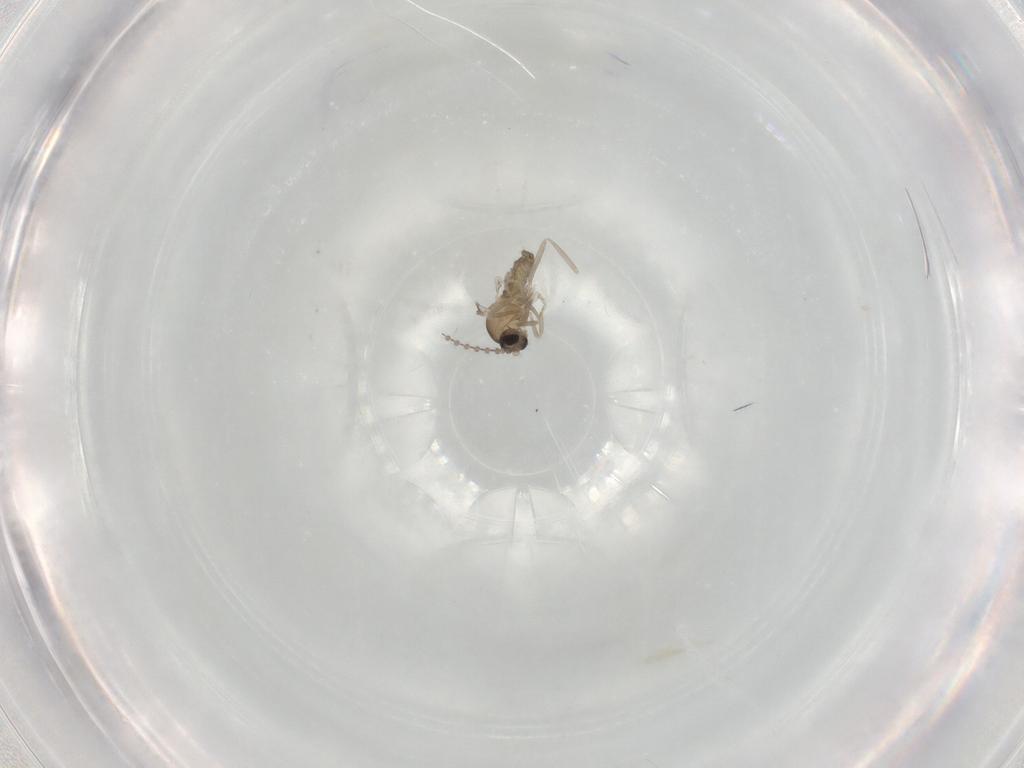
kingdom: Animalia
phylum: Arthropoda
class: Insecta
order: Diptera
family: Cecidomyiidae
